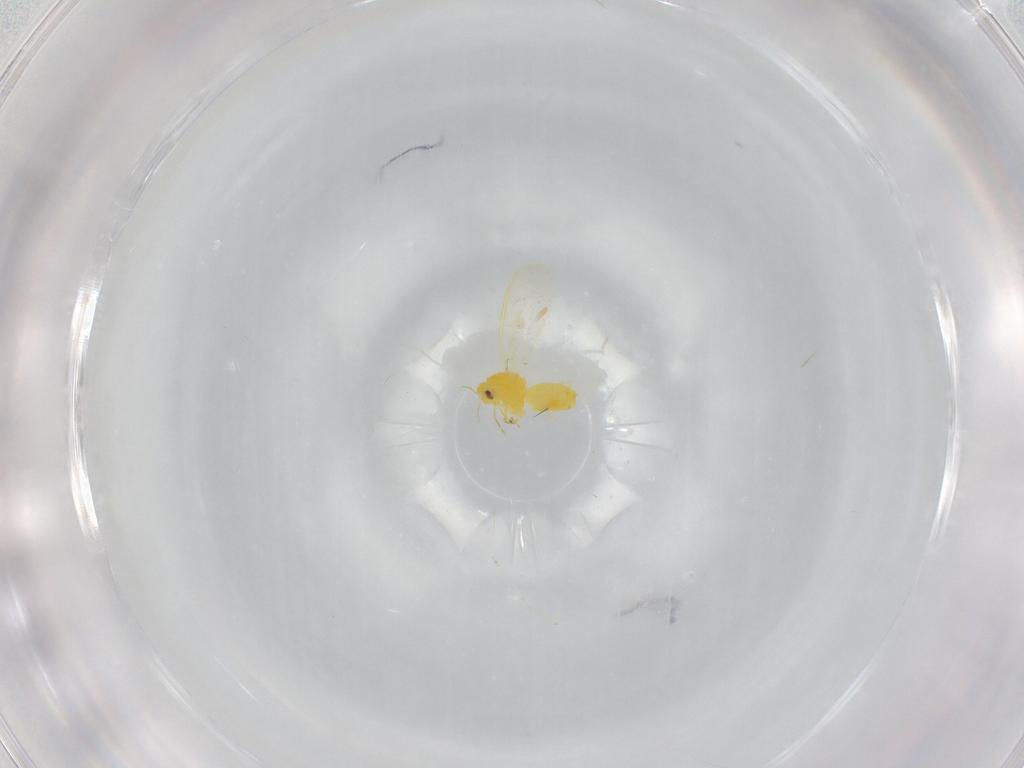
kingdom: Animalia
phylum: Arthropoda
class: Insecta
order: Hemiptera
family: Aleyrodidae
